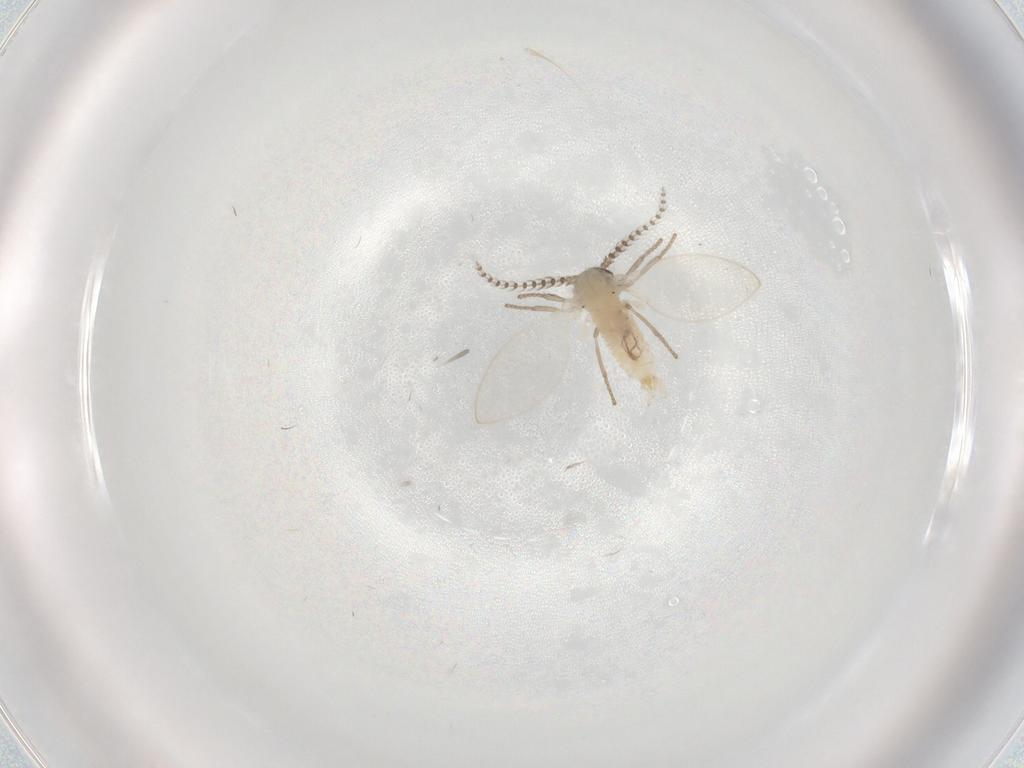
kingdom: Animalia
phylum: Arthropoda
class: Insecta
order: Diptera
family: Psychodidae
